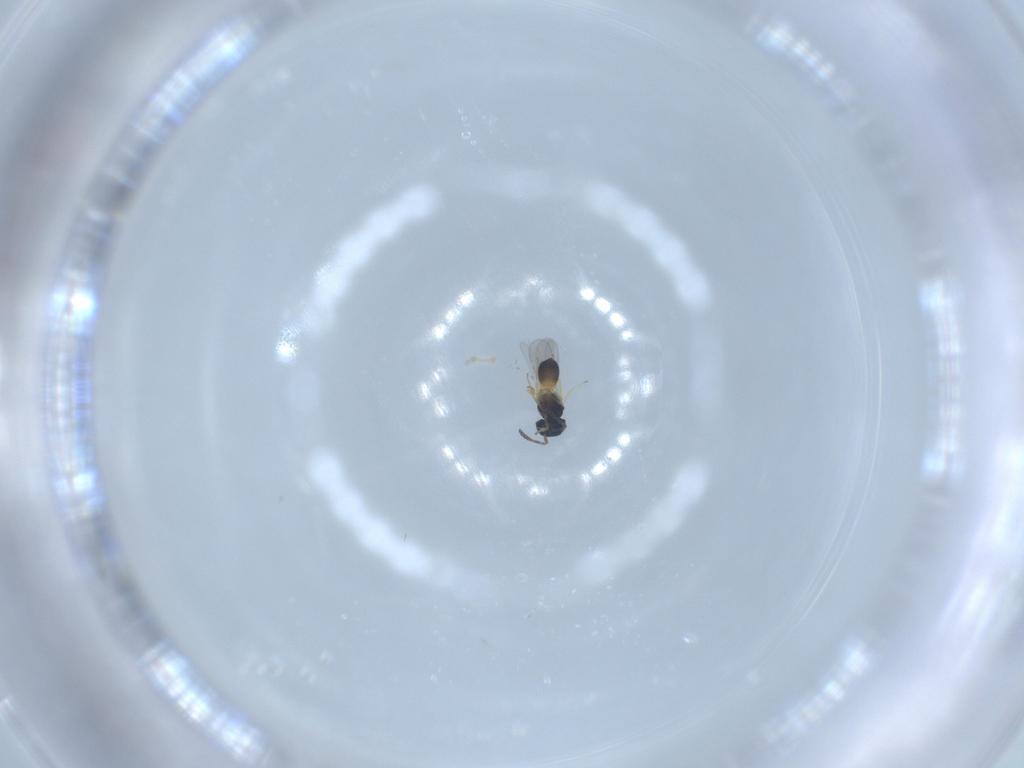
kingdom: Animalia
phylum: Arthropoda
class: Insecta
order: Hymenoptera
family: Scelionidae
